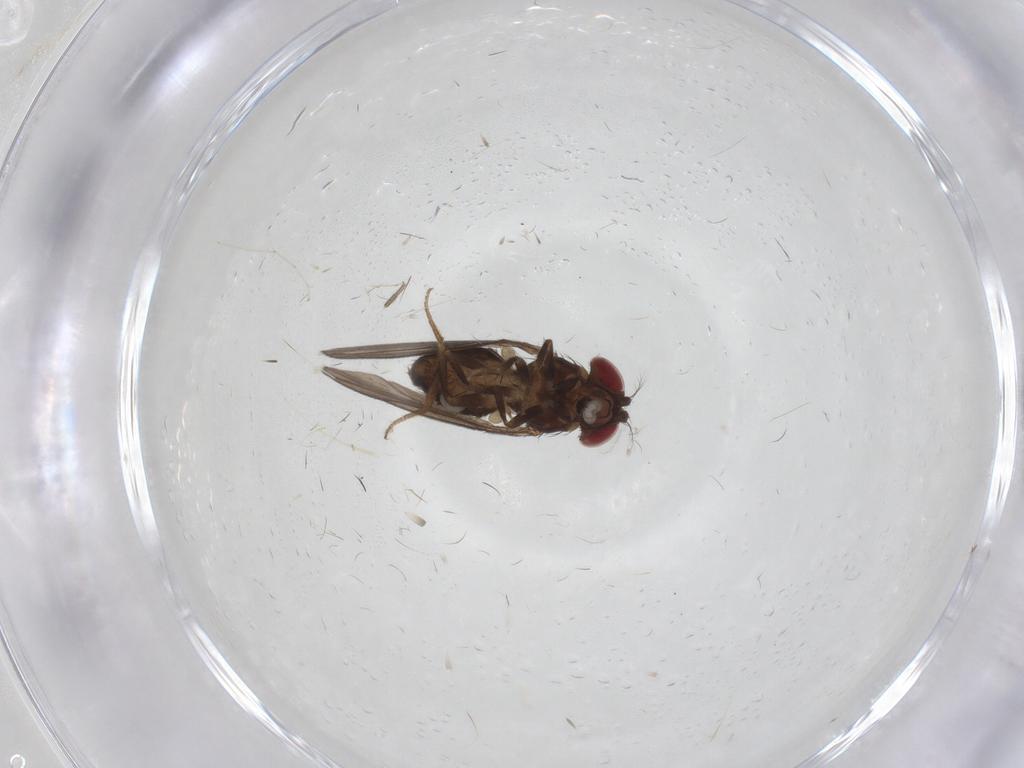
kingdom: Animalia
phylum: Arthropoda
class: Insecta
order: Diptera
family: Drosophilidae
